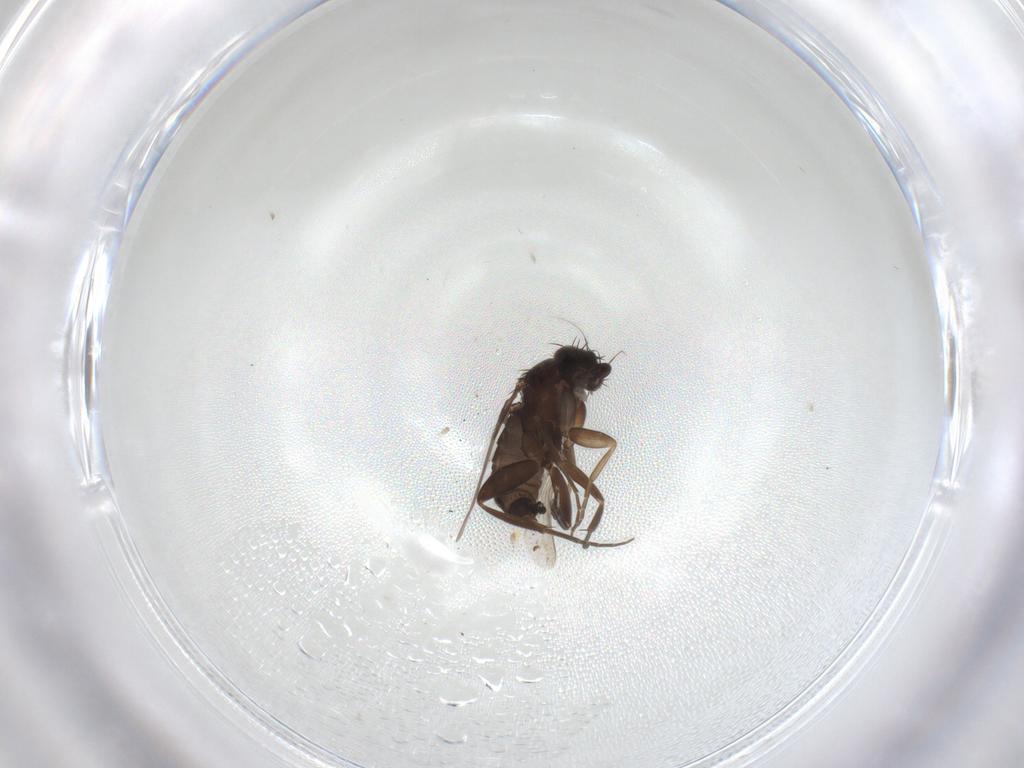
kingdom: Animalia
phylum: Arthropoda
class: Insecta
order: Diptera
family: Phoridae
